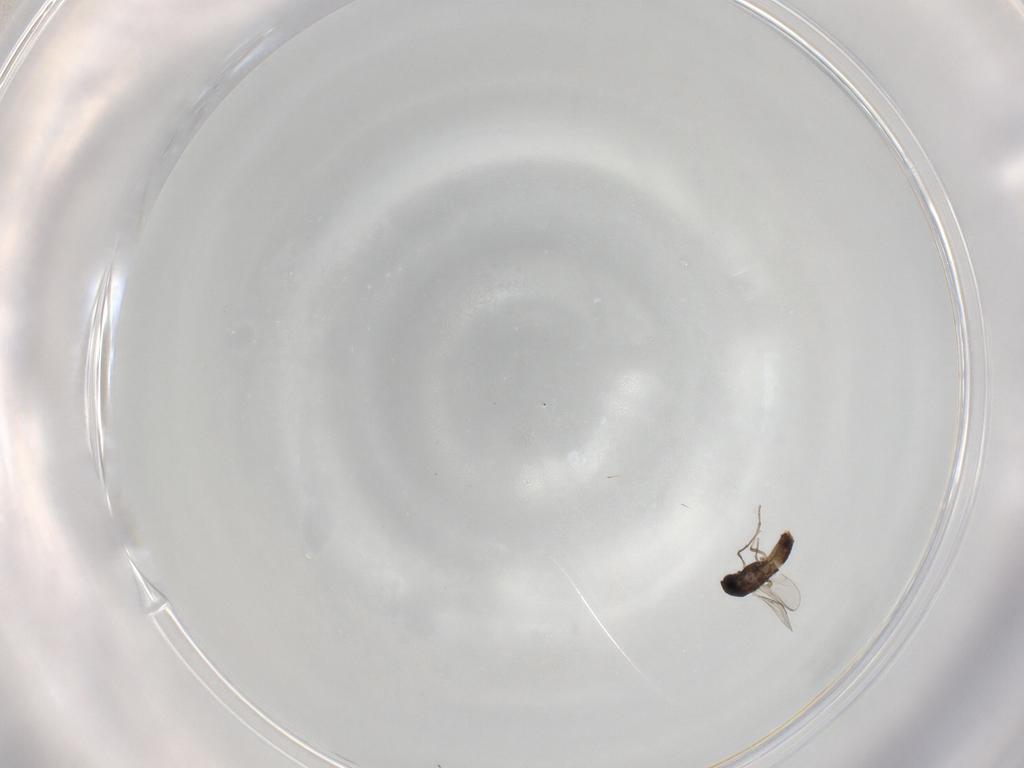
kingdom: Animalia
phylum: Arthropoda
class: Insecta
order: Diptera
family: Chironomidae
